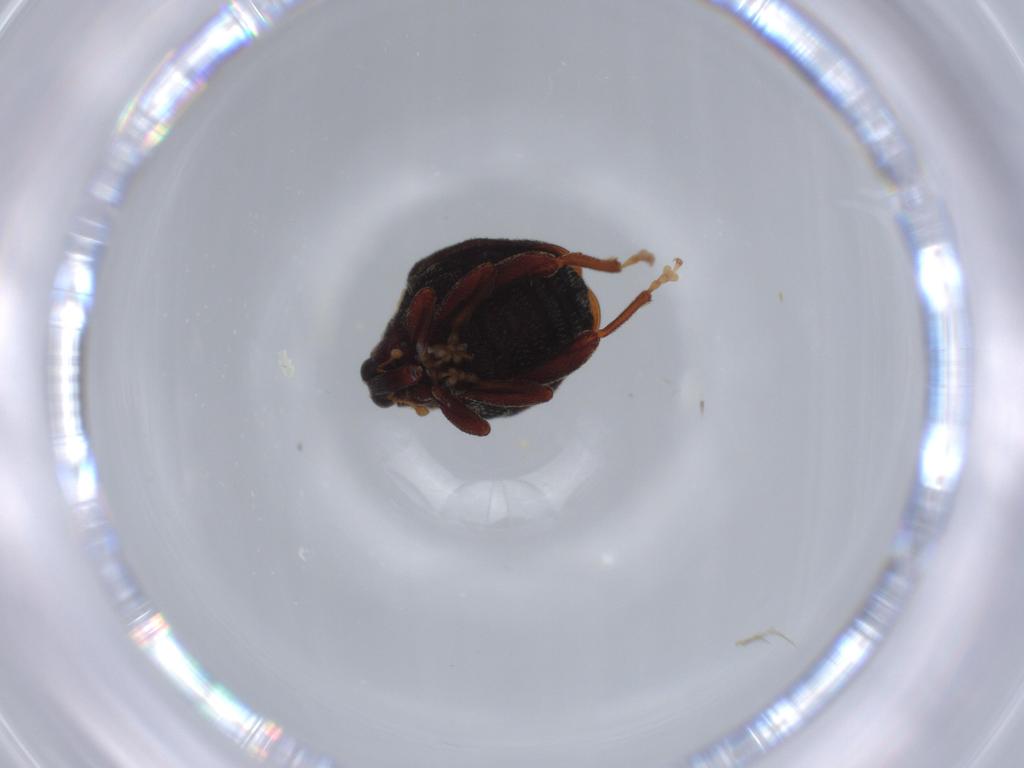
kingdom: Animalia
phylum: Arthropoda
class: Insecta
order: Coleoptera
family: Curculionidae
